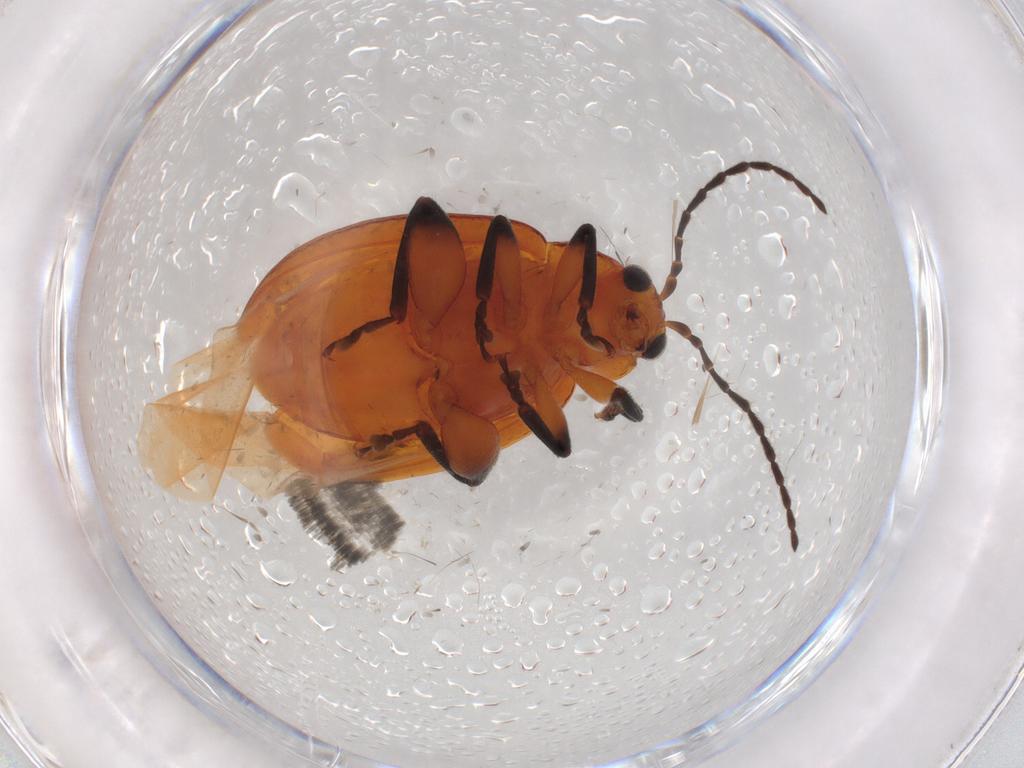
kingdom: Animalia
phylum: Arthropoda
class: Insecta
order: Coleoptera
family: Chrysomelidae
